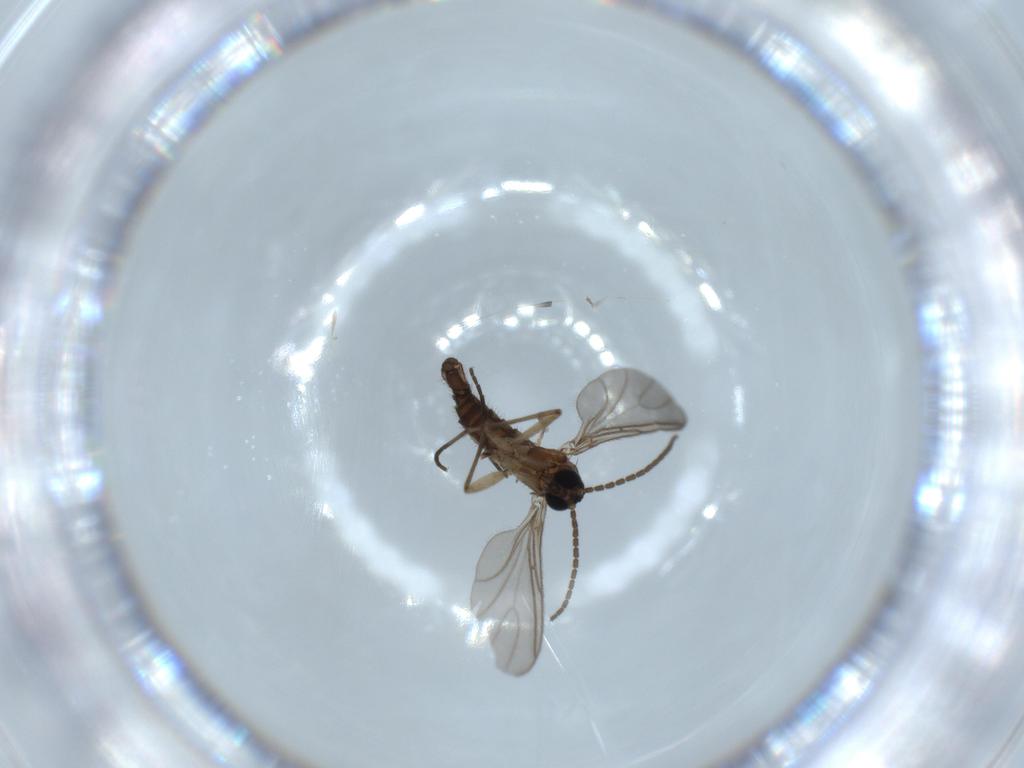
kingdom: Animalia
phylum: Arthropoda
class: Insecta
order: Diptera
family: Sciaridae
